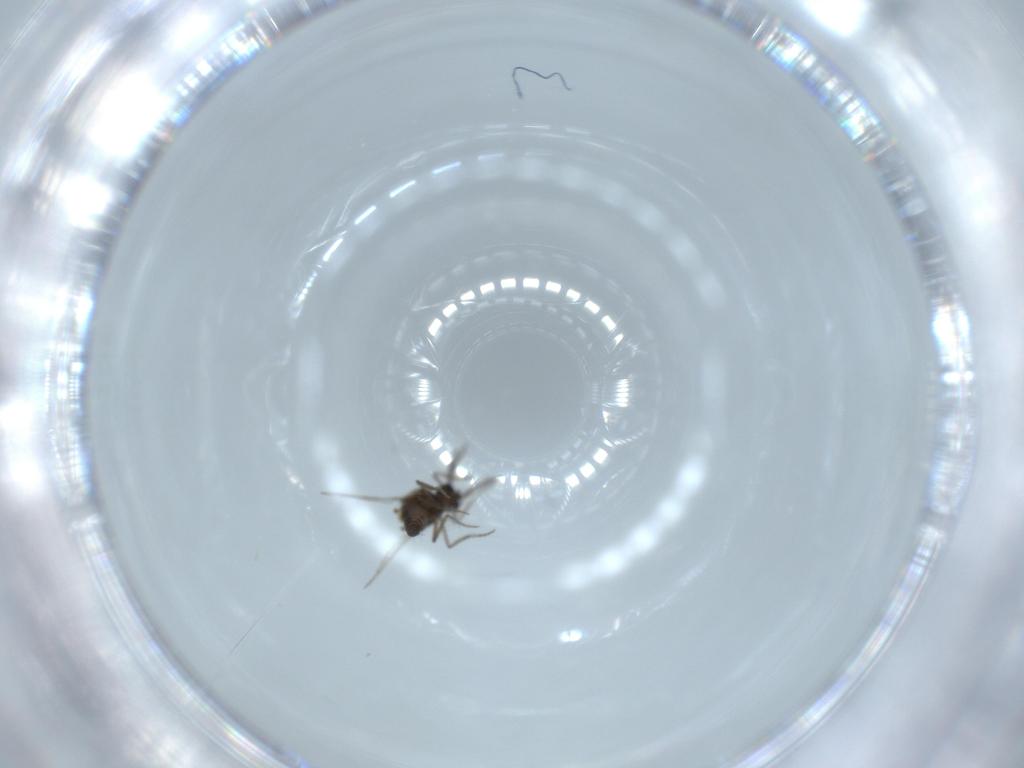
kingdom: Animalia
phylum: Arthropoda
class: Insecta
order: Diptera
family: Ceratopogonidae
